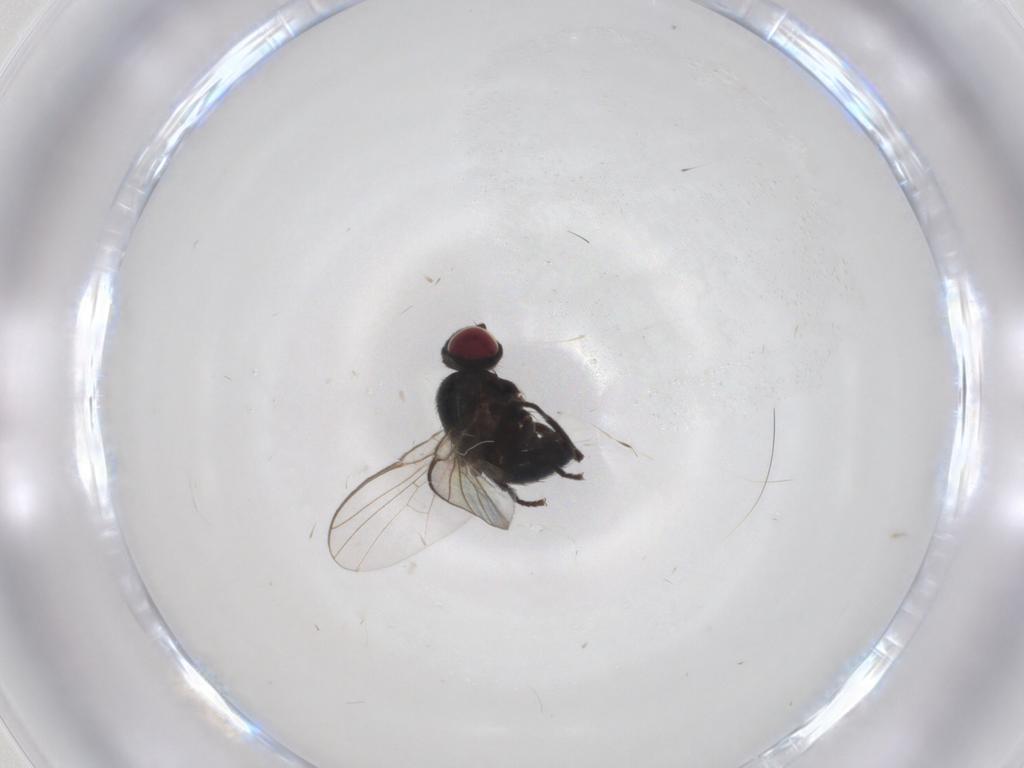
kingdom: Animalia
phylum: Arthropoda
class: Insecta
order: Diptera
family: Agromyzidae
